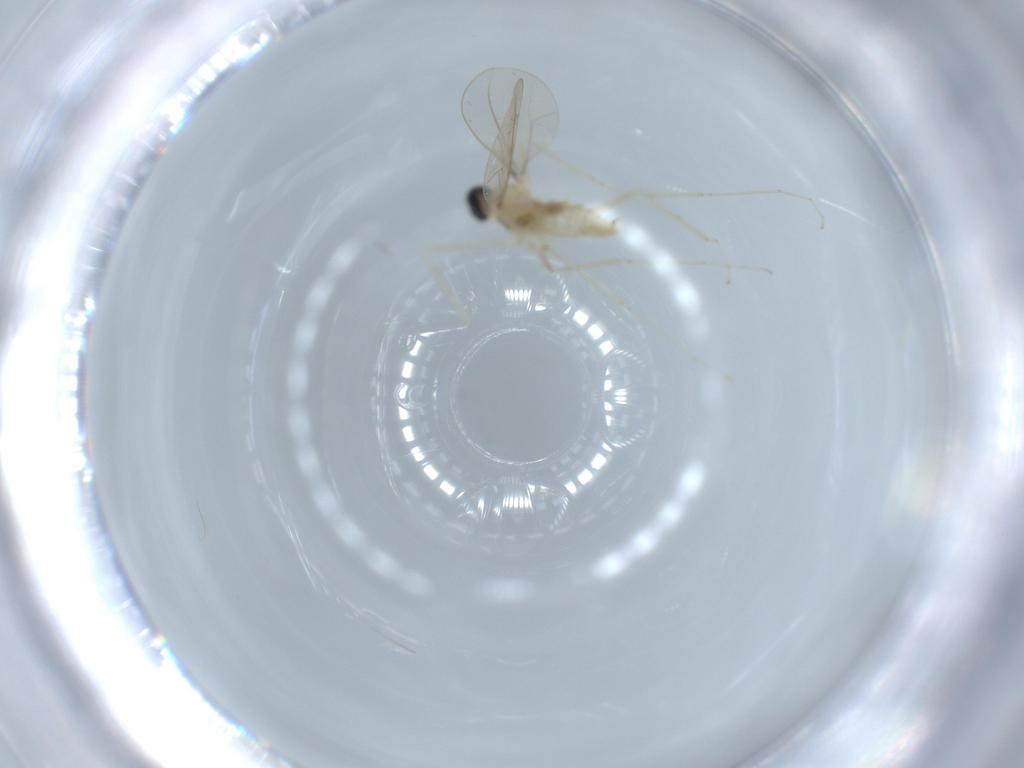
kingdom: Animalia
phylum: Arthropoda
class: Insecta
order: Diptera
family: Cecidomyiidae
